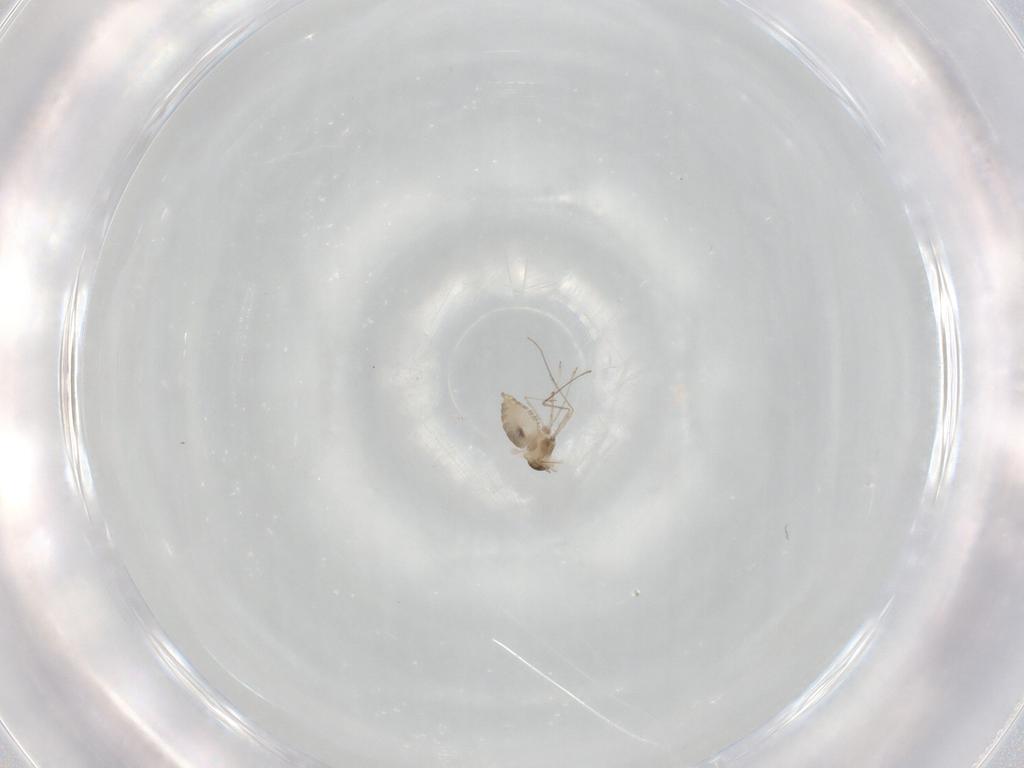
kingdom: Animalia
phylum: Arthropoda
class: Insecta
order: Diptera
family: Cecidomyiidae
